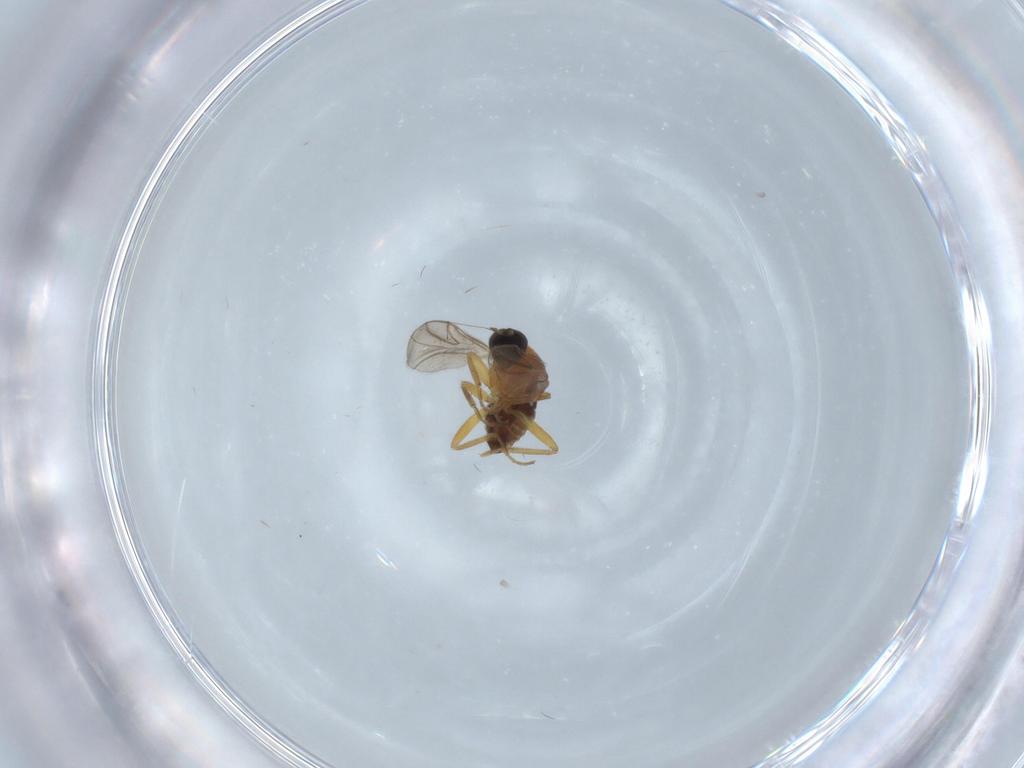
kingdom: Animalia
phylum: Arthropoda
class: Insecta
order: Diptera
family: Hybotidae
